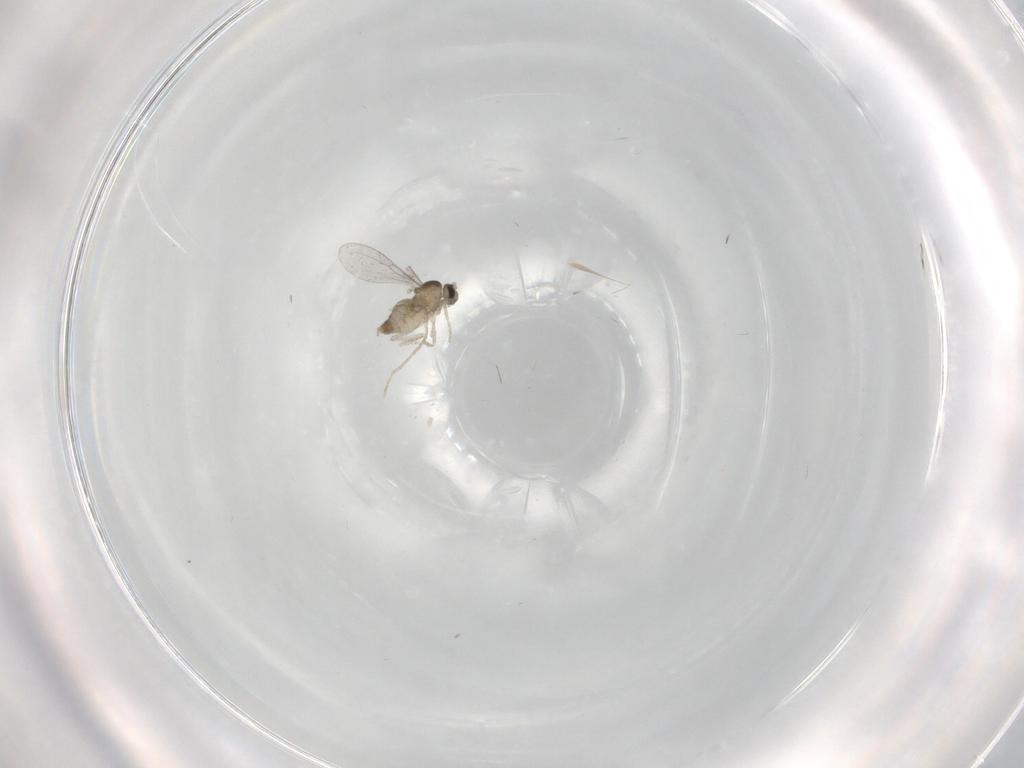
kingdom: Animalia
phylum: Arthropoda
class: Insecta
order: Diptera
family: Cecidomyiidae
